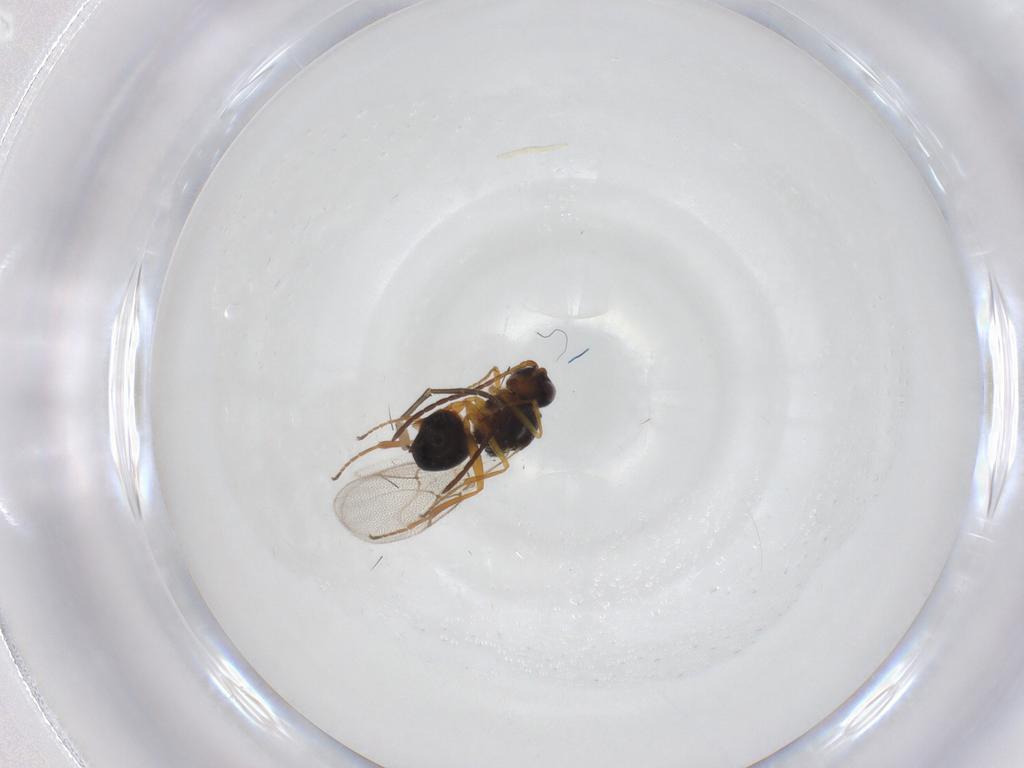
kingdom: Animalia
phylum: Arthropoda
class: Insecta
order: Hymenoptera
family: Figitidae
